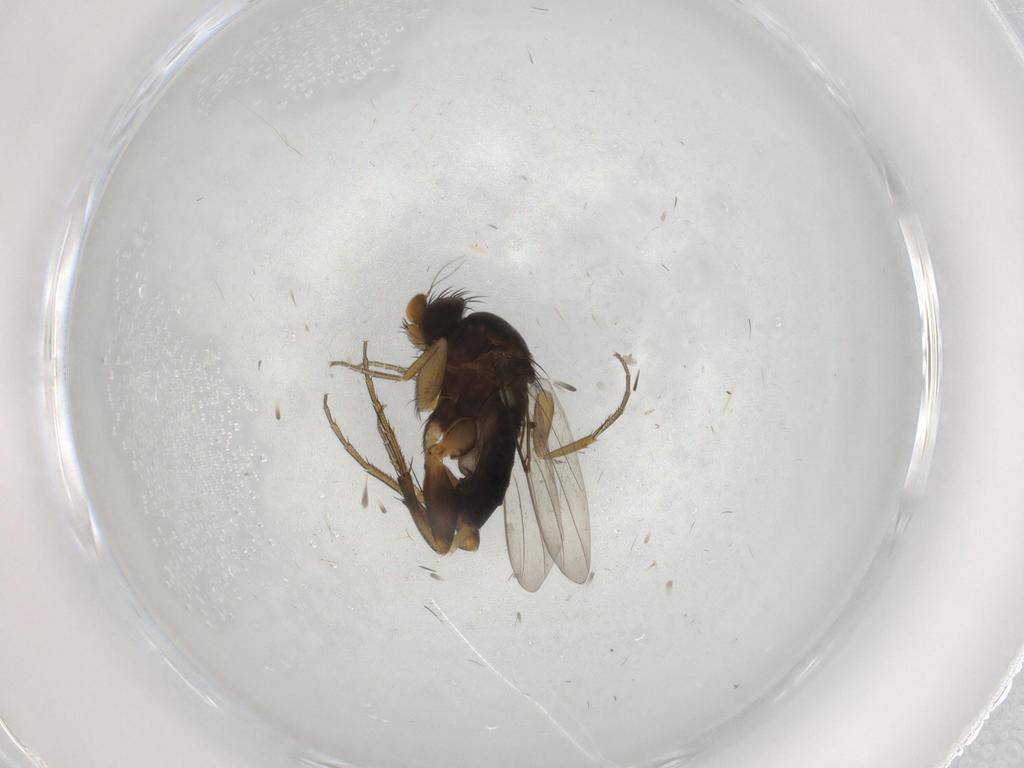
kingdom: Animalia
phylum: Arthropoda
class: Insecta
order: Diptera
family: Phoridae
